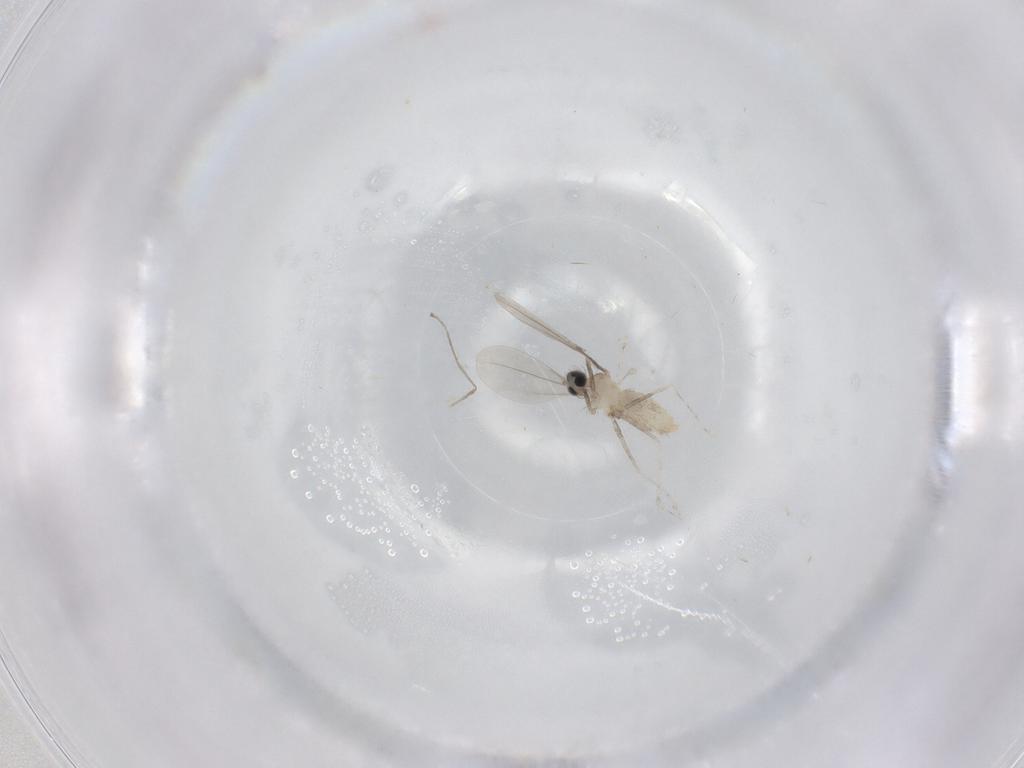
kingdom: Animalia
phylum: Arthropoda
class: Insecta
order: Diptera
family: Cecidomyiidae
